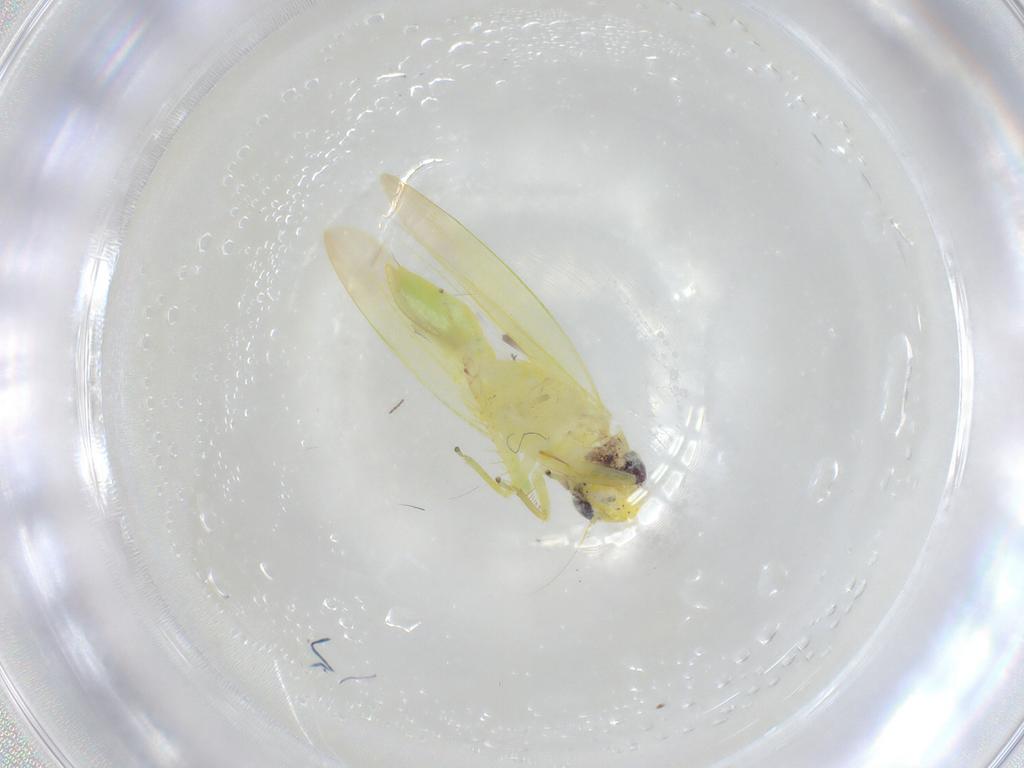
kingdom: Animalia
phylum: Arthropoda
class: Insecta
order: Hemiptera
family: Cicadellidae
